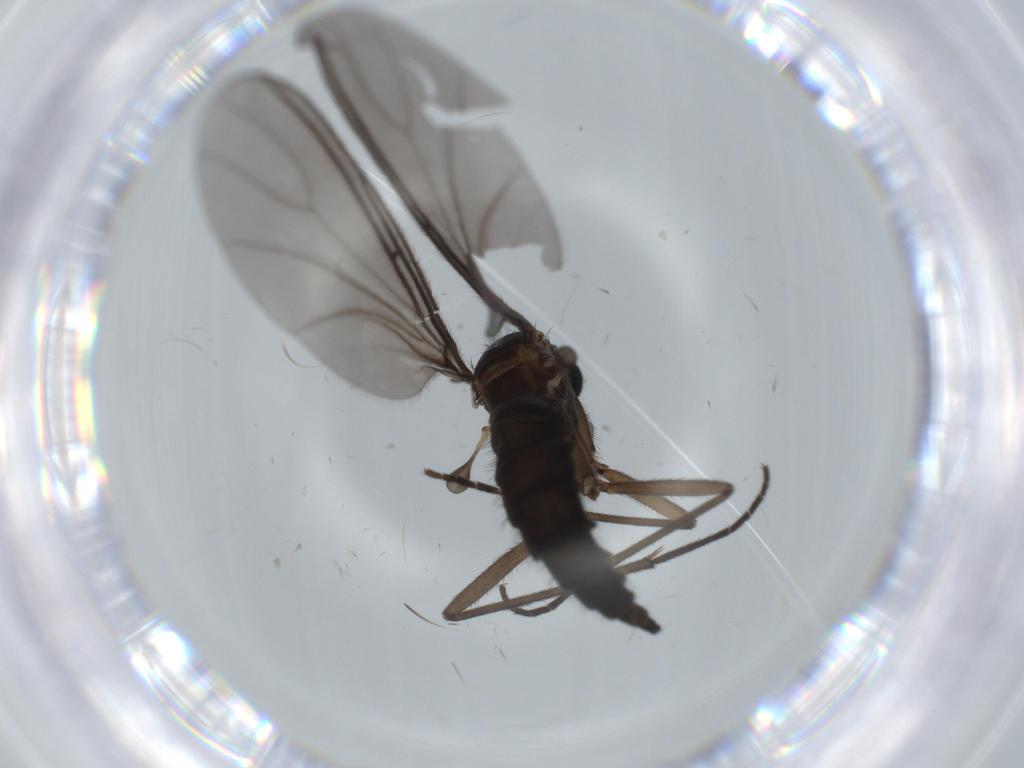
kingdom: Animalia
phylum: Arthropoda
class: Insecta
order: Diptera
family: Sciaridae
